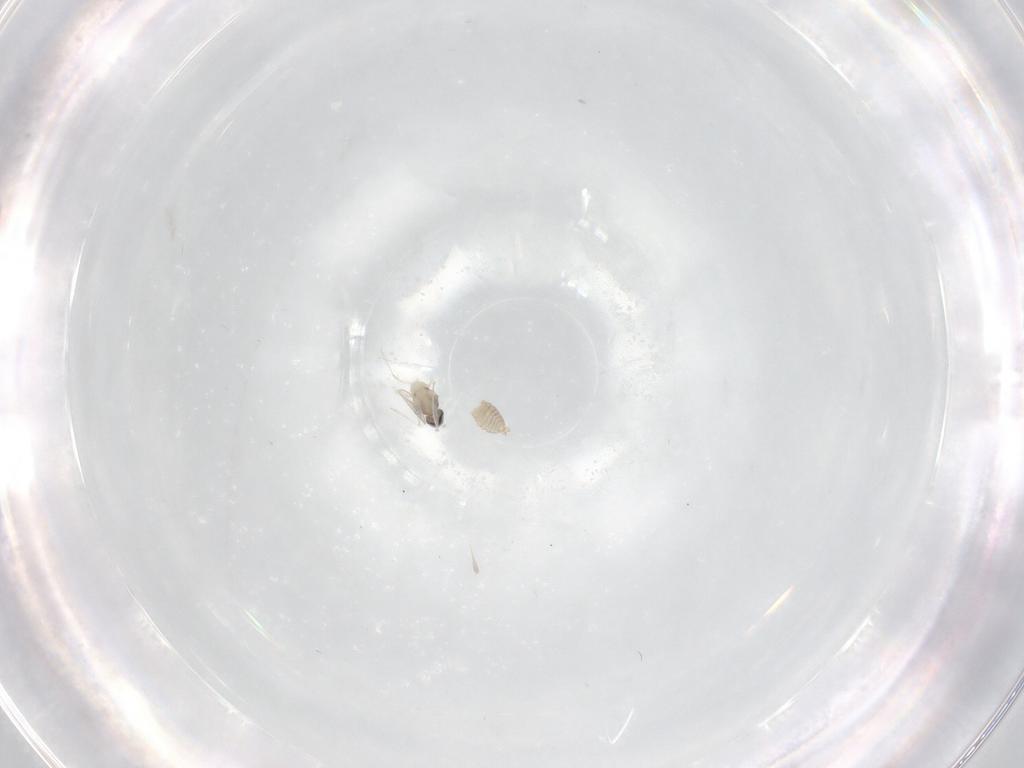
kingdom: Animalia
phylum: Arthropoda
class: Insecta
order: Diptera
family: Cecidomyiidae
